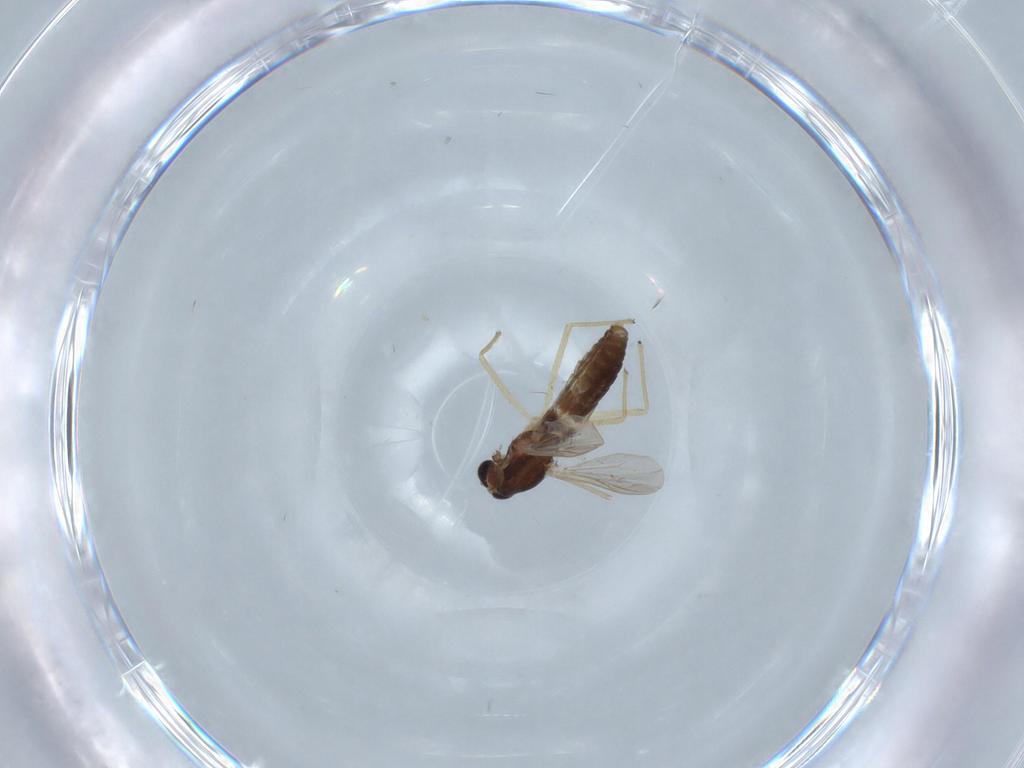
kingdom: Animalia
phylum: Arthropoda
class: Insecta
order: Diptera
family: Chironomidae
